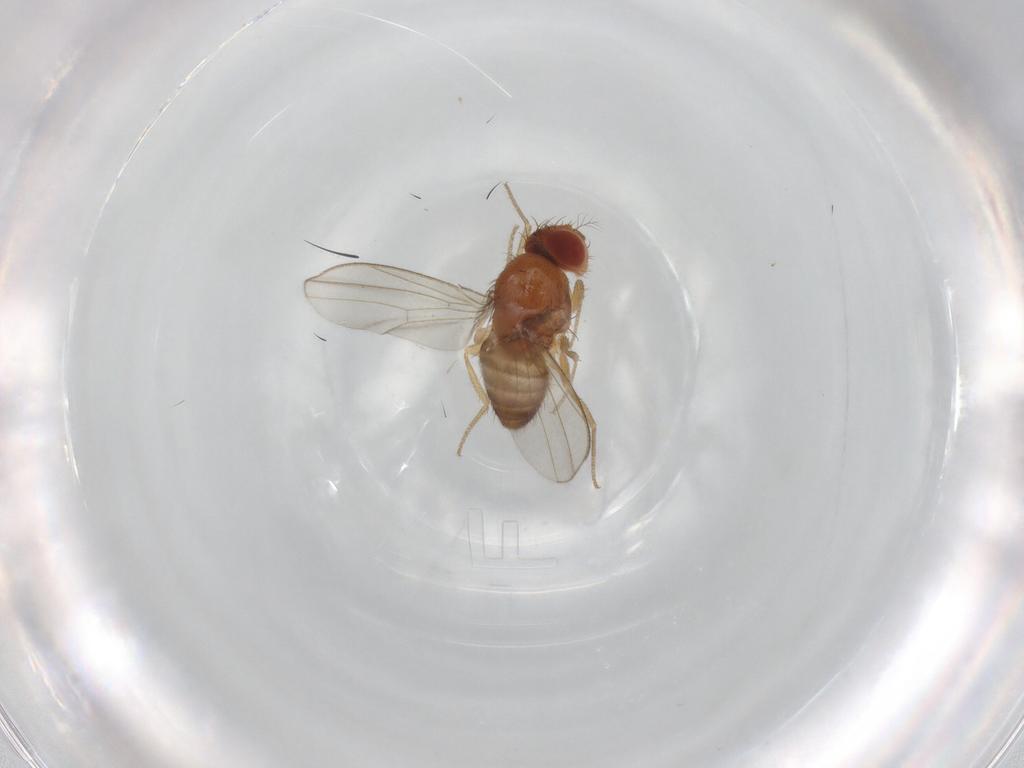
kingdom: Animalia
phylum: Arthropoda
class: Insecta
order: Diptera
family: Drosophilidae
